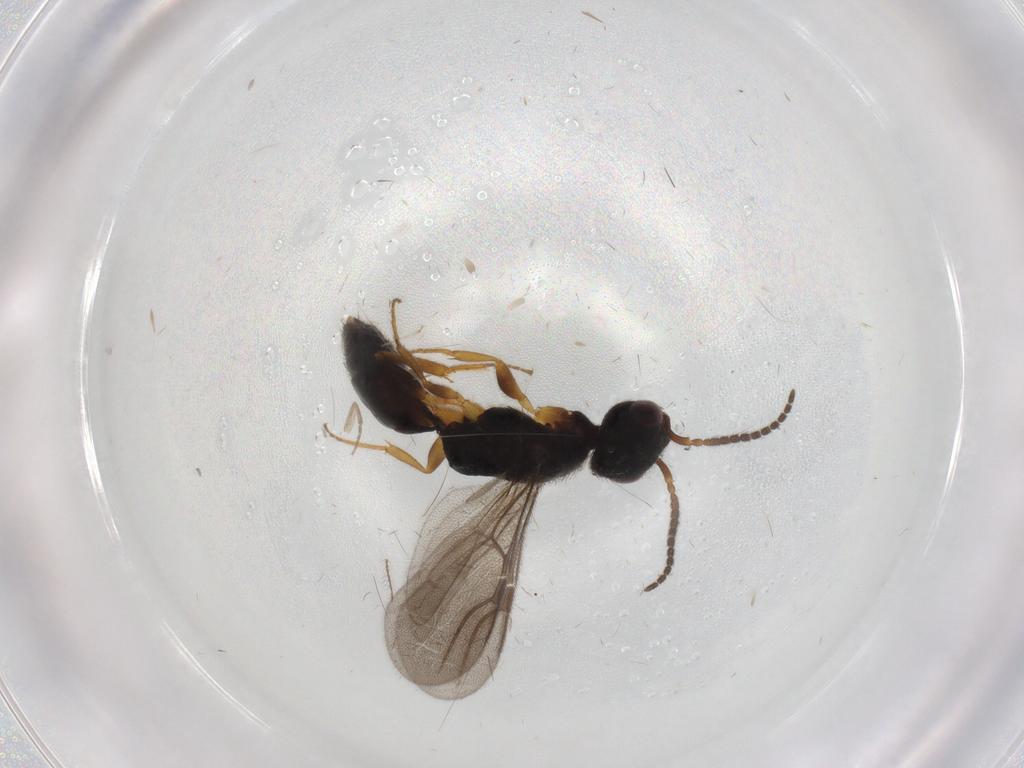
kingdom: Animalia
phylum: Arthropoda
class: Insecta
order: Hymenoptera
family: Bethylidae
